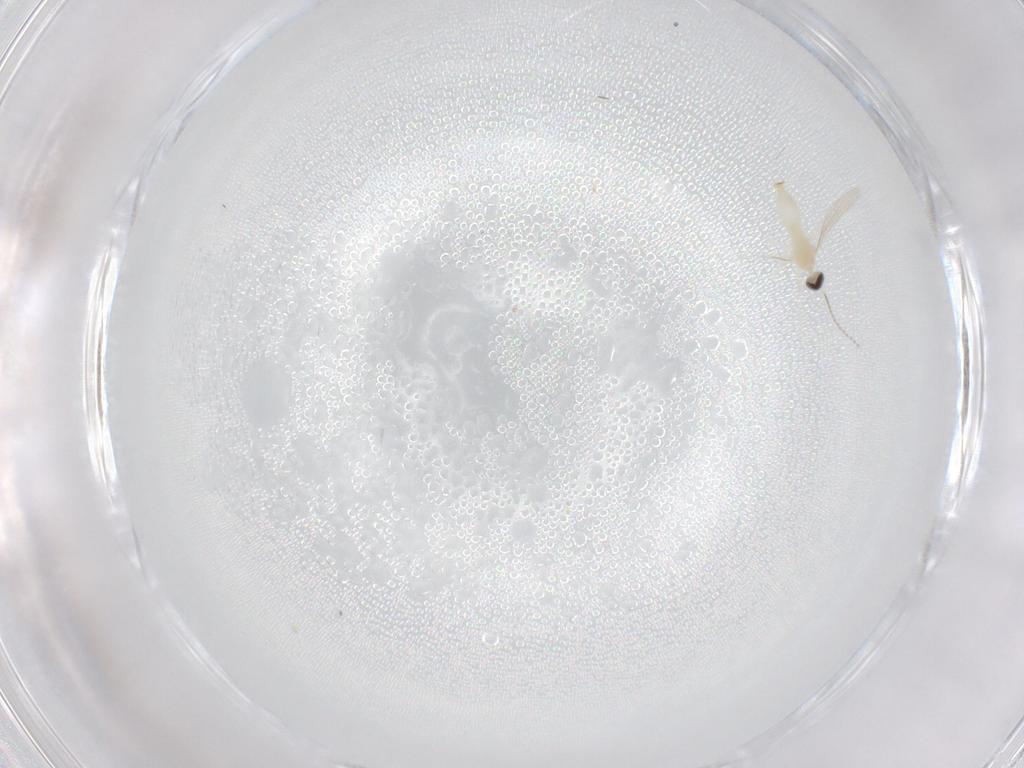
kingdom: Animalia
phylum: Arthropoda
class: Insecta
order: Diptera
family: Cecidomyiidae
